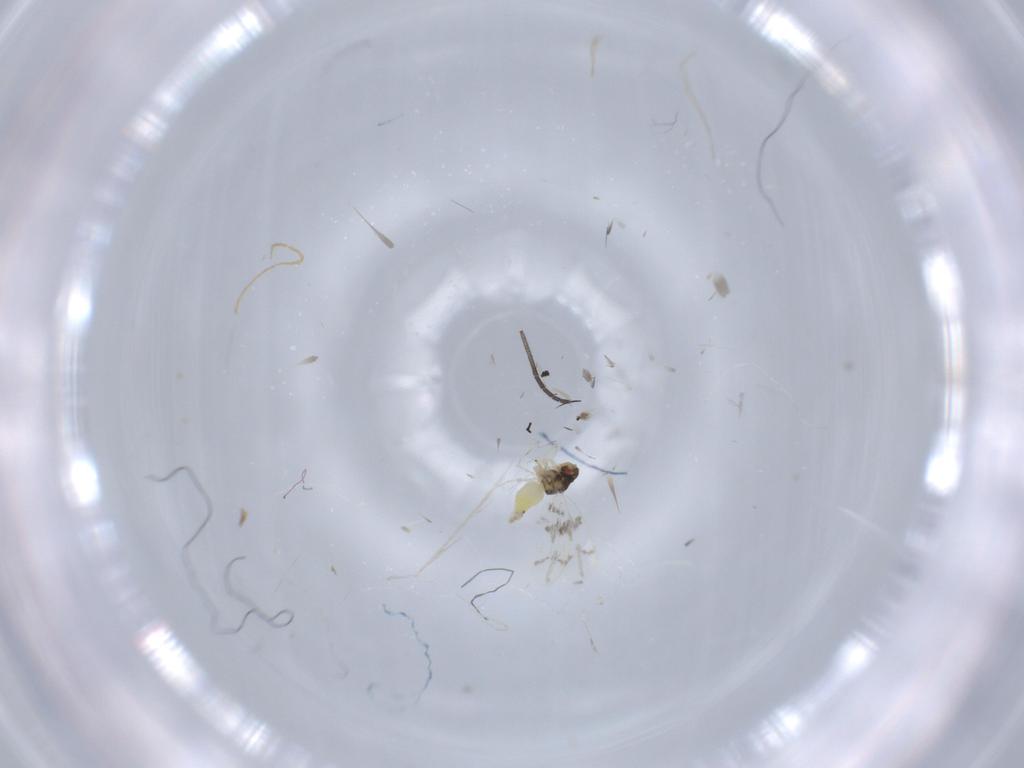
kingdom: Animalia
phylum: Arthropoda
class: Insecta
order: Hemiptera
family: Aleyrodidae
